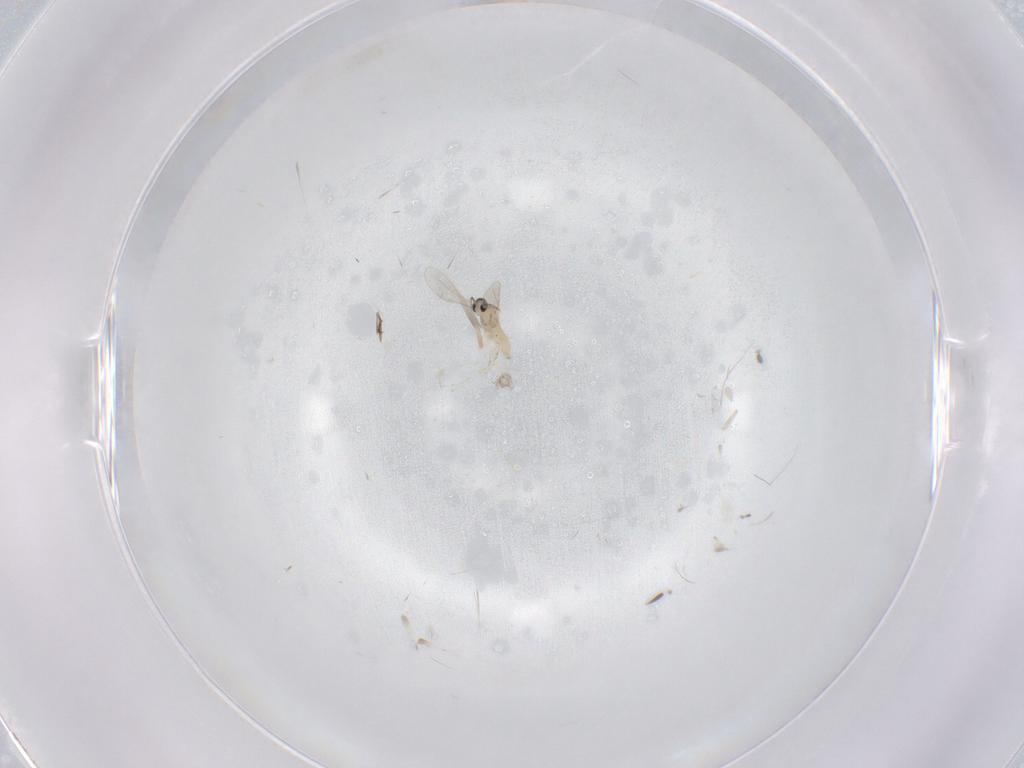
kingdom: Animalia
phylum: Arthropoda
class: Insecta
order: Diptera
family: Cecidomyiidae
